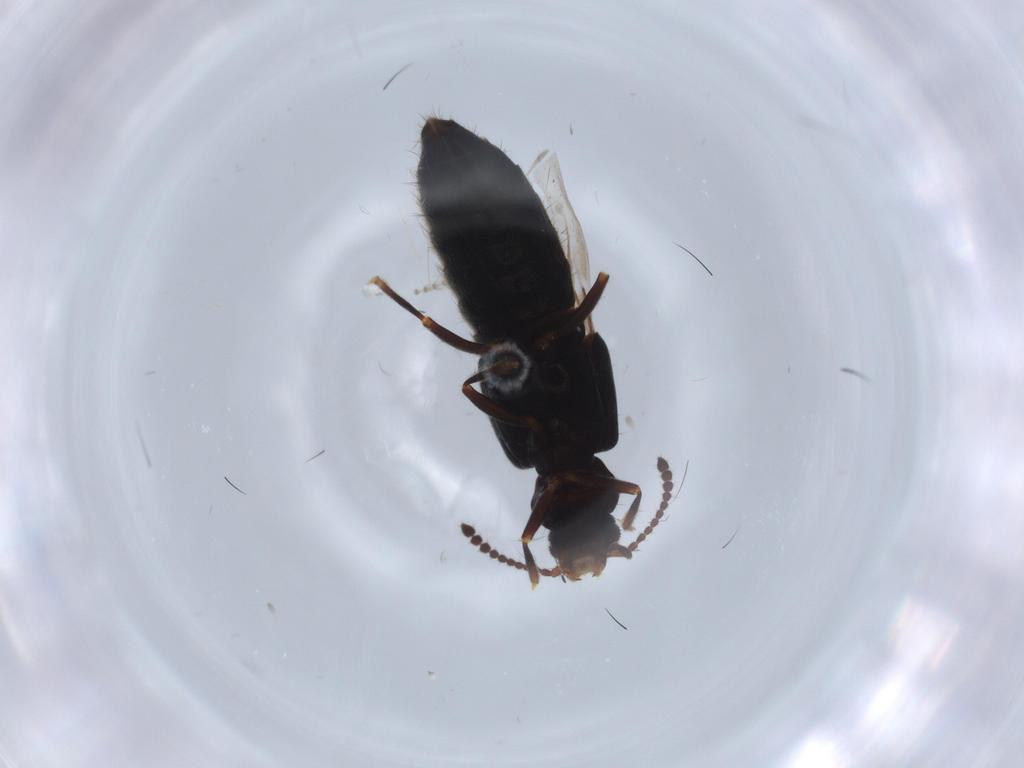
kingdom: Animalia
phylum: Arthropoda
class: Insecta
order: Coleoptera
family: Staphylinidae
